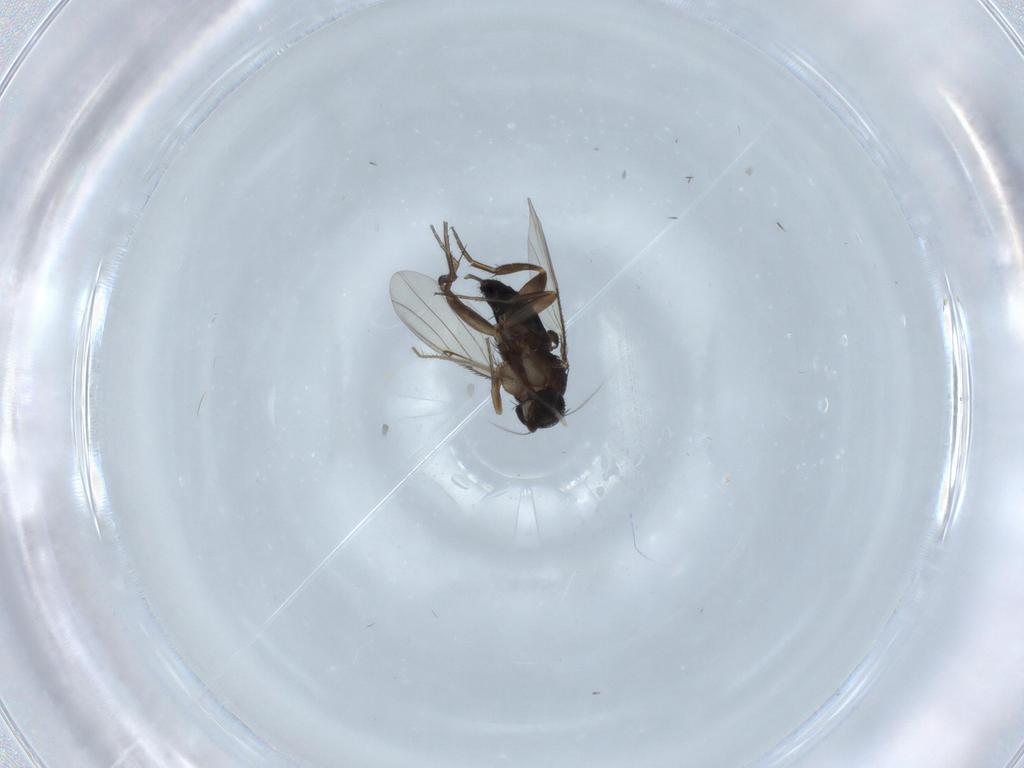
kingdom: Animalia
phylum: Arthropoda
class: Insecta
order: Diptera
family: Phoridae
